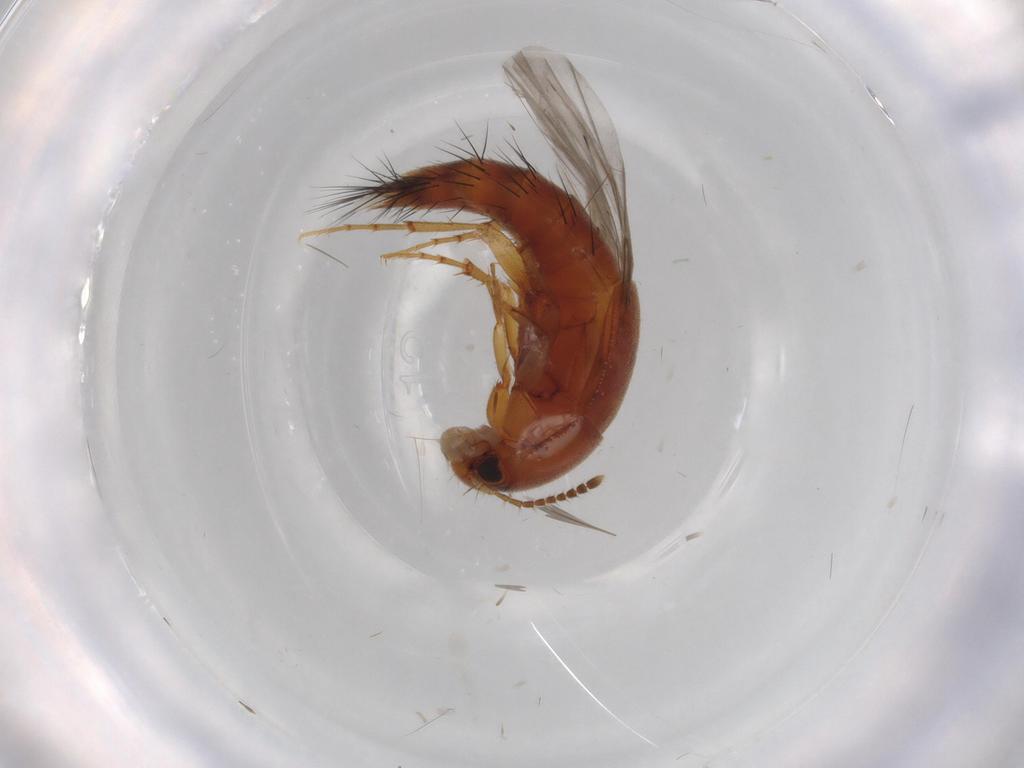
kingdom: Animalia
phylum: Arthropoda
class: Insecta
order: Coleoptera
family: Staphylinidae
